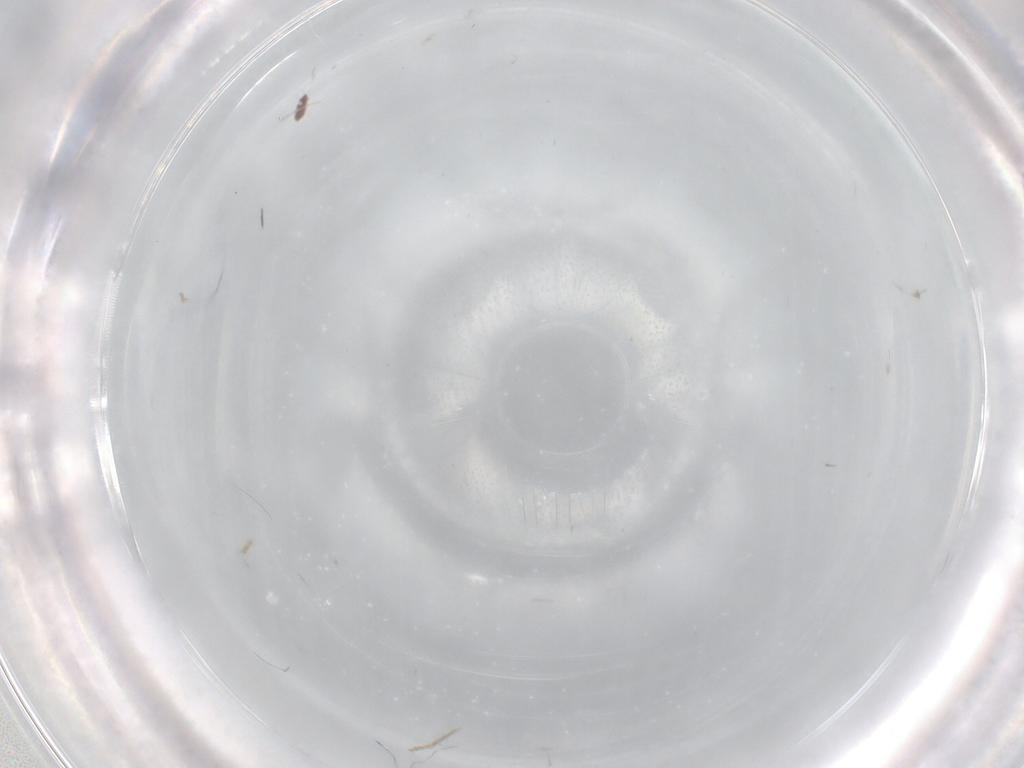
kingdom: Animalia
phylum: Arthropoda
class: Insecta
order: Diptera
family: Cecidomyiidae
